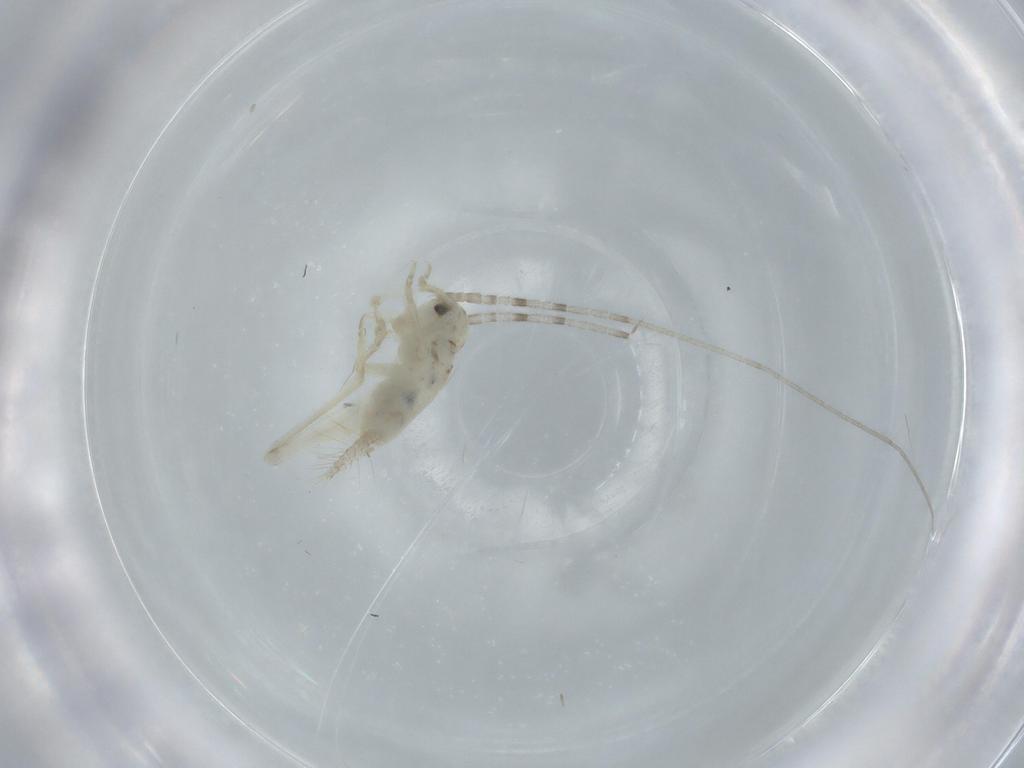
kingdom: Animalia
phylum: Arthropoda
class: Insecta
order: Orthoptera
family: Trigonidiidae
